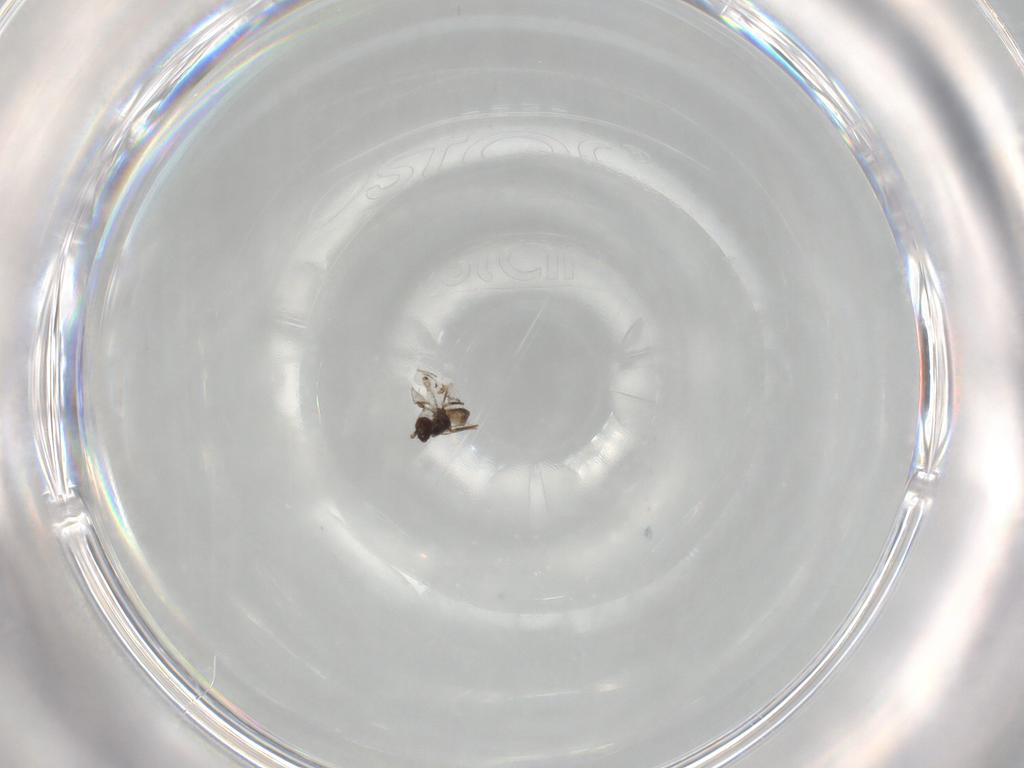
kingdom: Animalia
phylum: Arthropoda
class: Insecta
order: Hymenoptera
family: Mymaridae
